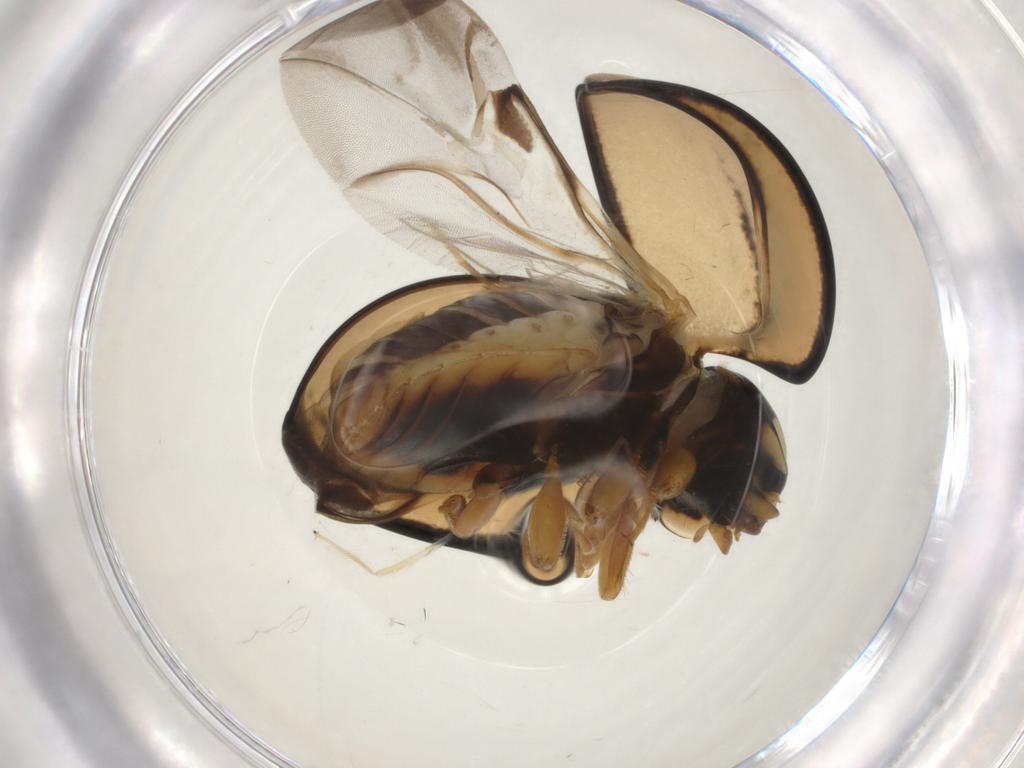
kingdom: Animalia
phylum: Arthropoda
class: Insecta
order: Coleoptera
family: Coccinellidae
